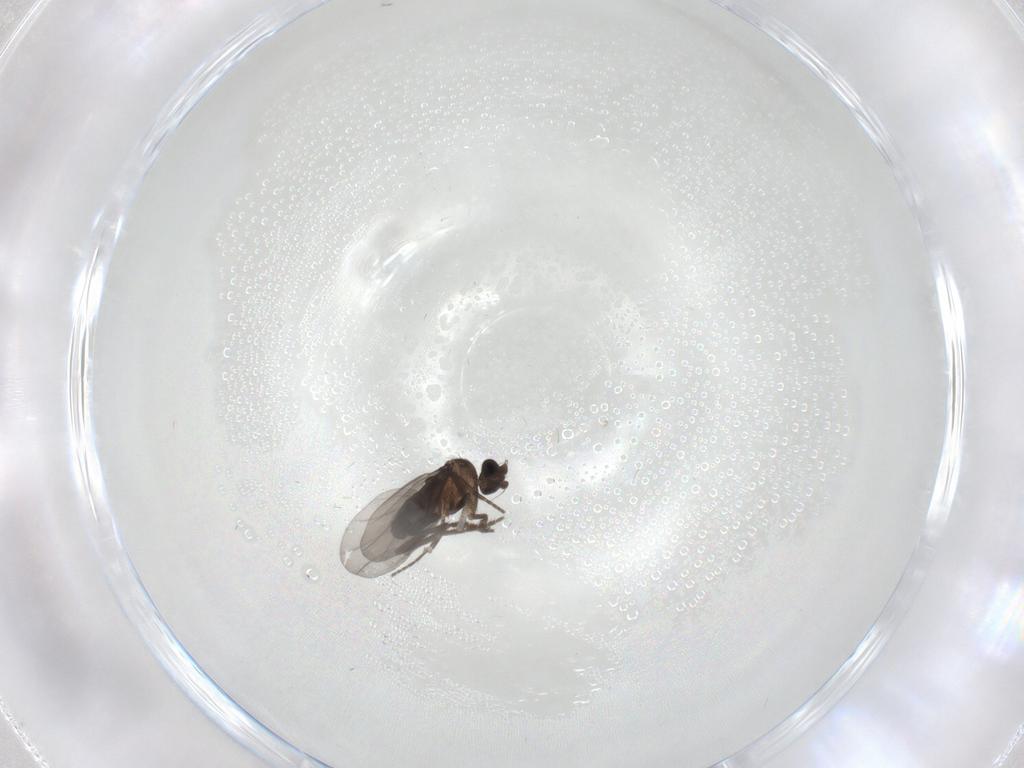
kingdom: Animalia
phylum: Arthropoda
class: Insecta
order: Diptera
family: Phoridae
